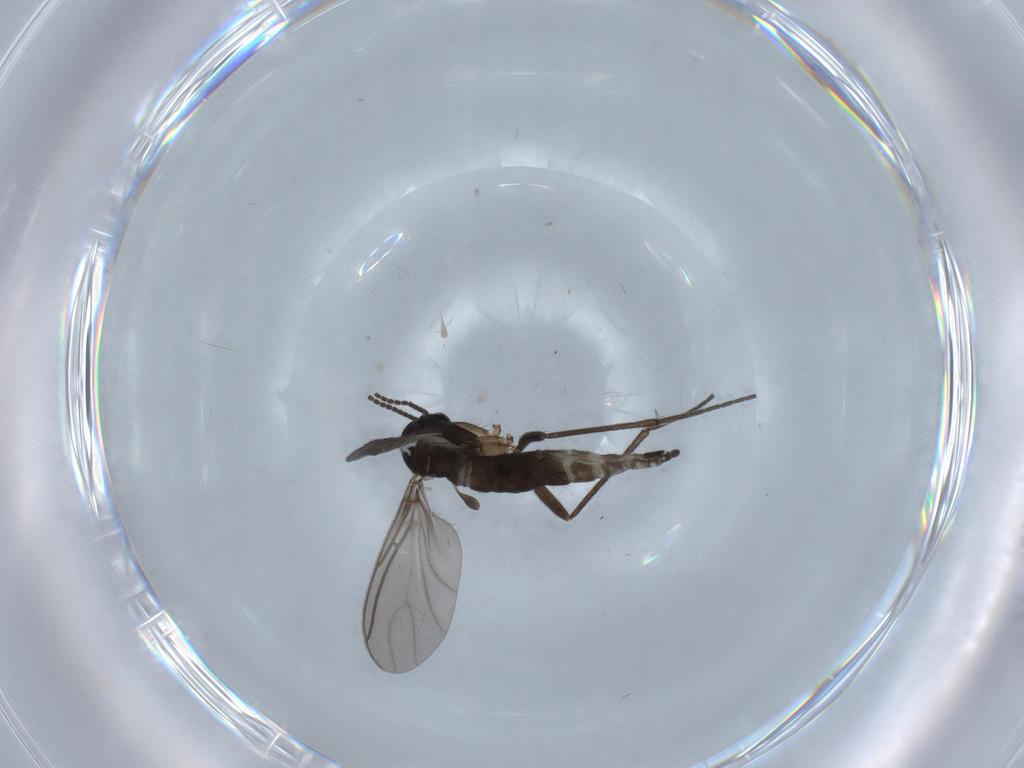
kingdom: Animalia
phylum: Arthropoda
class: Insecta
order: Diptera
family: Sciaridae
